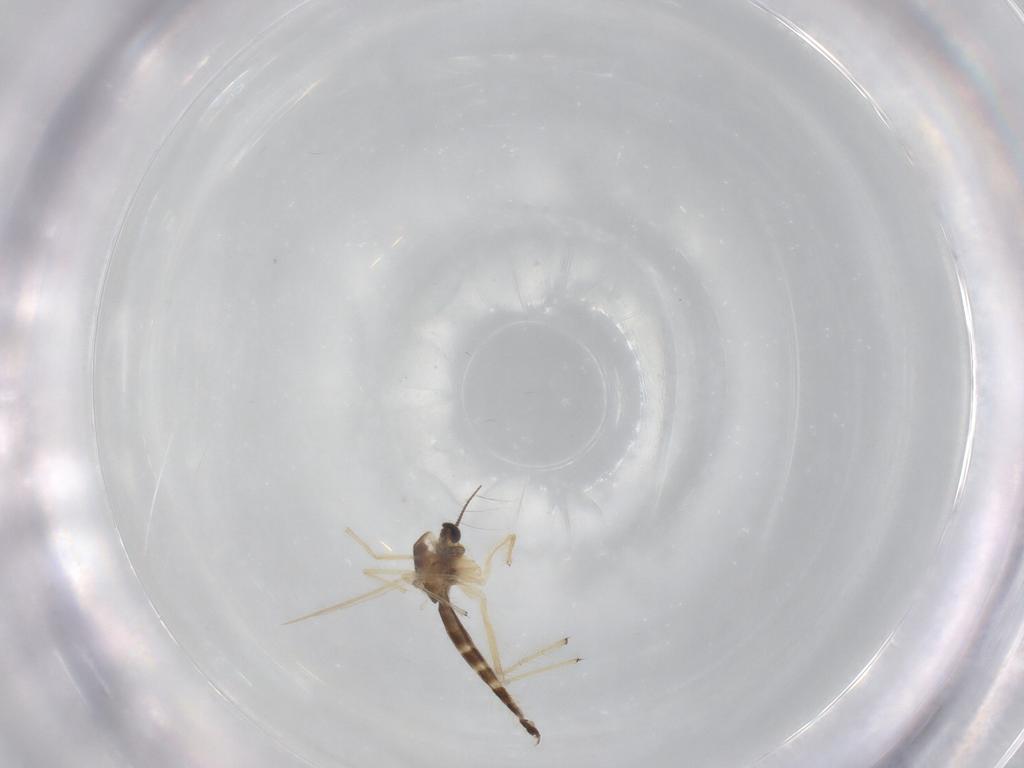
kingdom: Animalia
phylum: Arthropoda
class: Insecta
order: Diptera
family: Chironomidae
